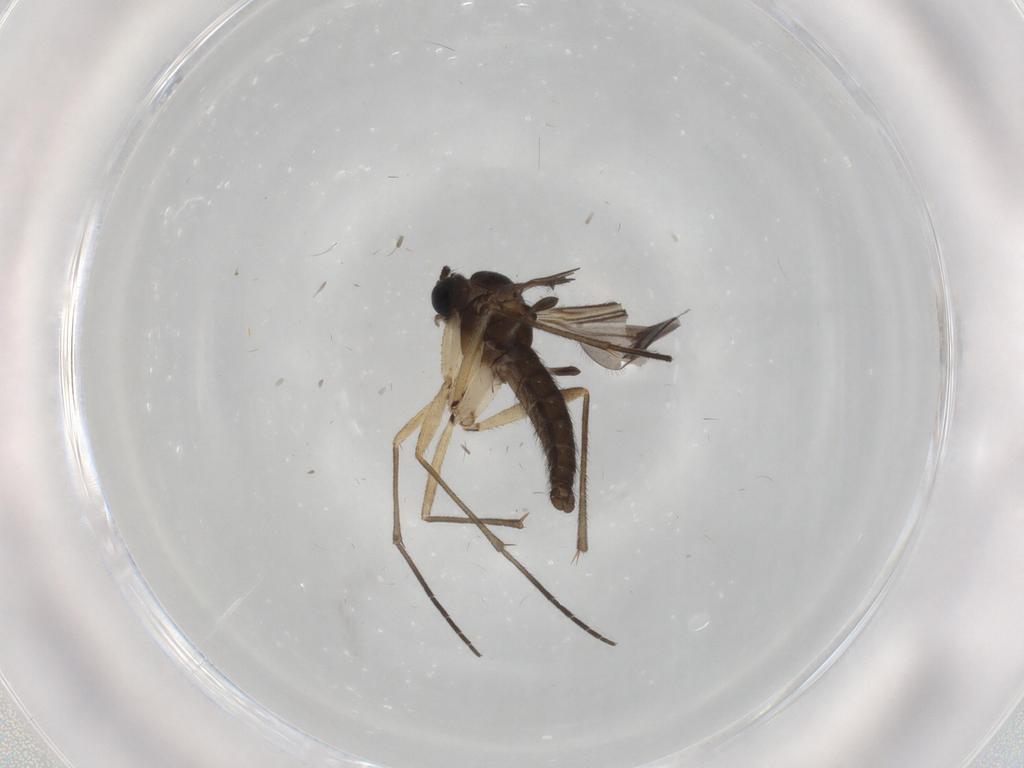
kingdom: Animalia
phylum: Arthropoda
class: Insecta
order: Diptera
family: Sciaridae
